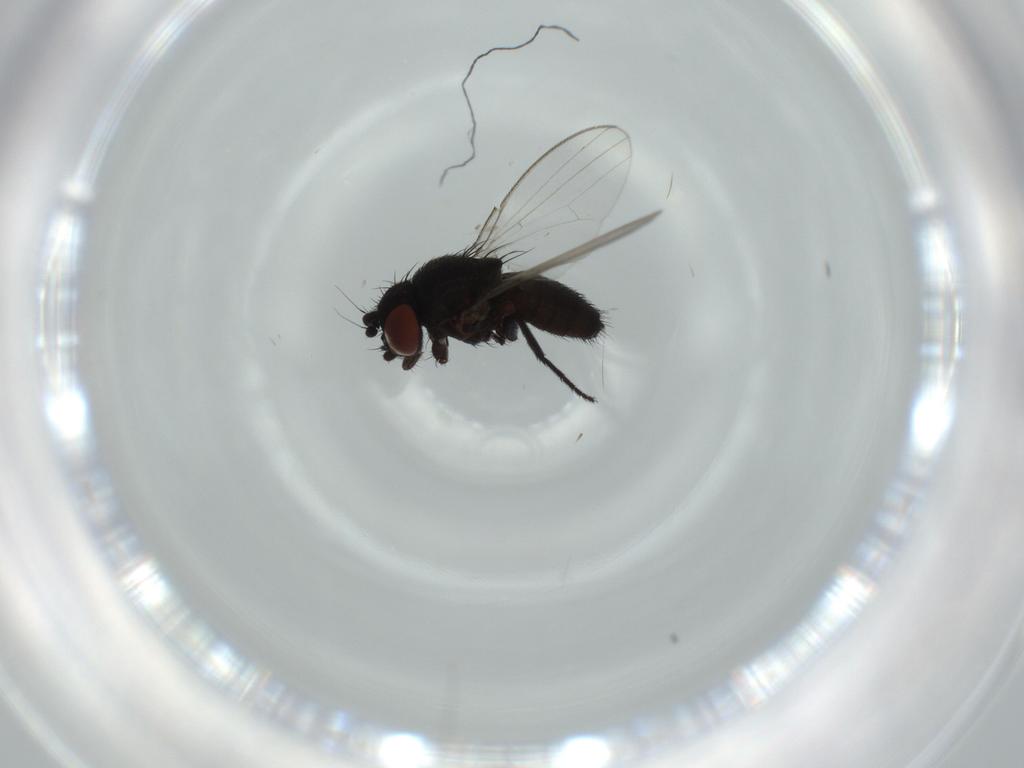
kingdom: Animalia
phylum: Arthropoda
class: Insecta
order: Diptera
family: Milichiidae
